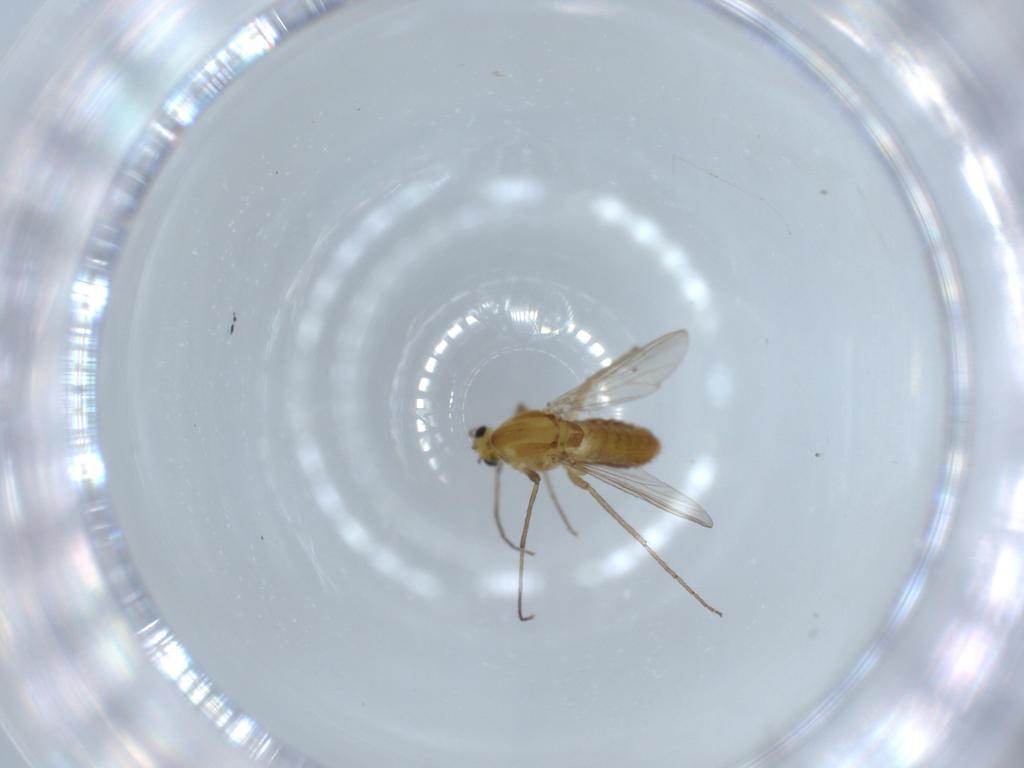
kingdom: Animalia
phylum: Arthropoda
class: Insecta
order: Diptera
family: Sciaridae
